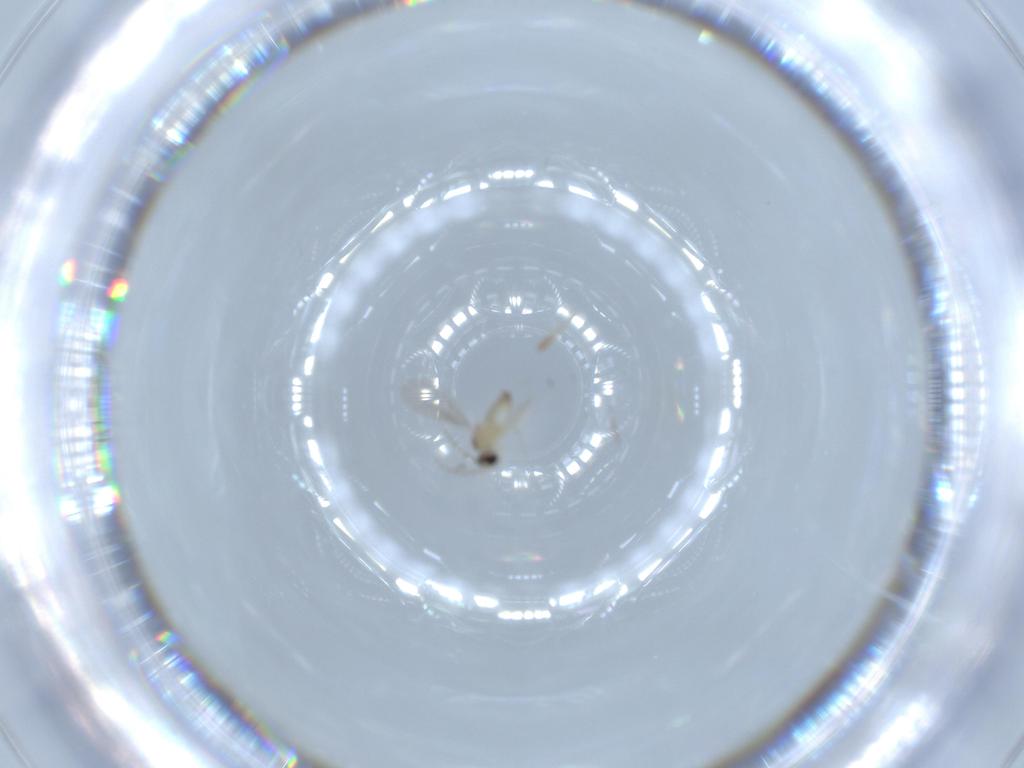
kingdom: Animalia
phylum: Arthropoda
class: Insecta
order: Diptera
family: Cecidomyiidae
